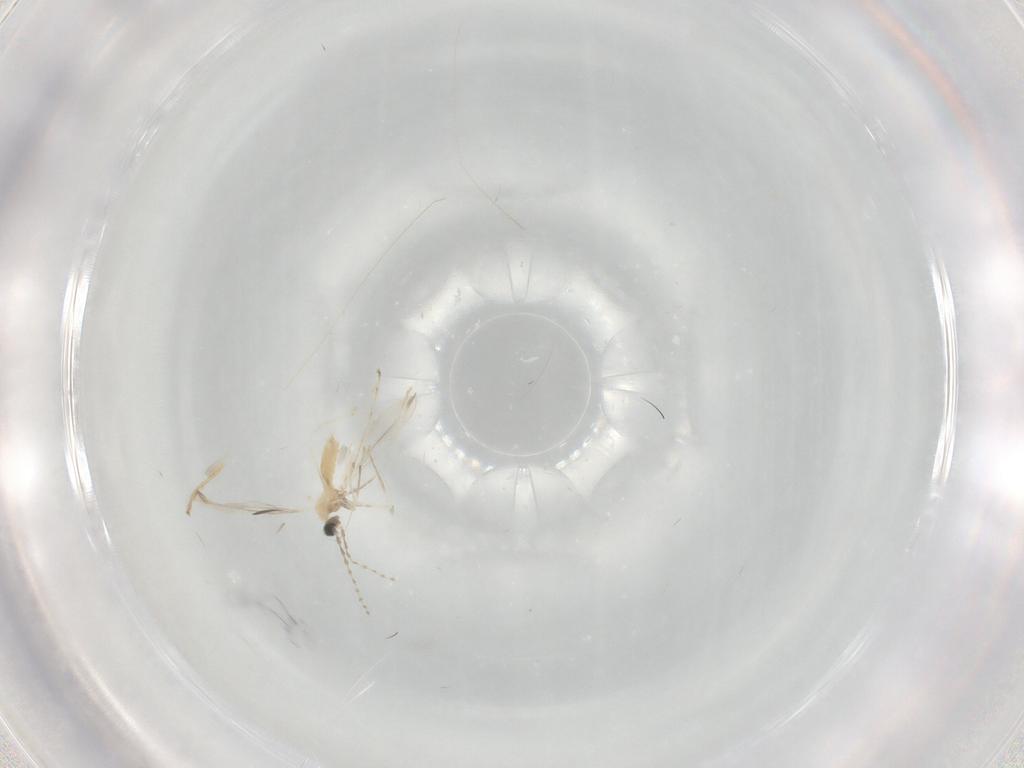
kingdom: Animalia
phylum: Arthropoda
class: Insecta
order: Diptera
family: Cecidomyiidae
